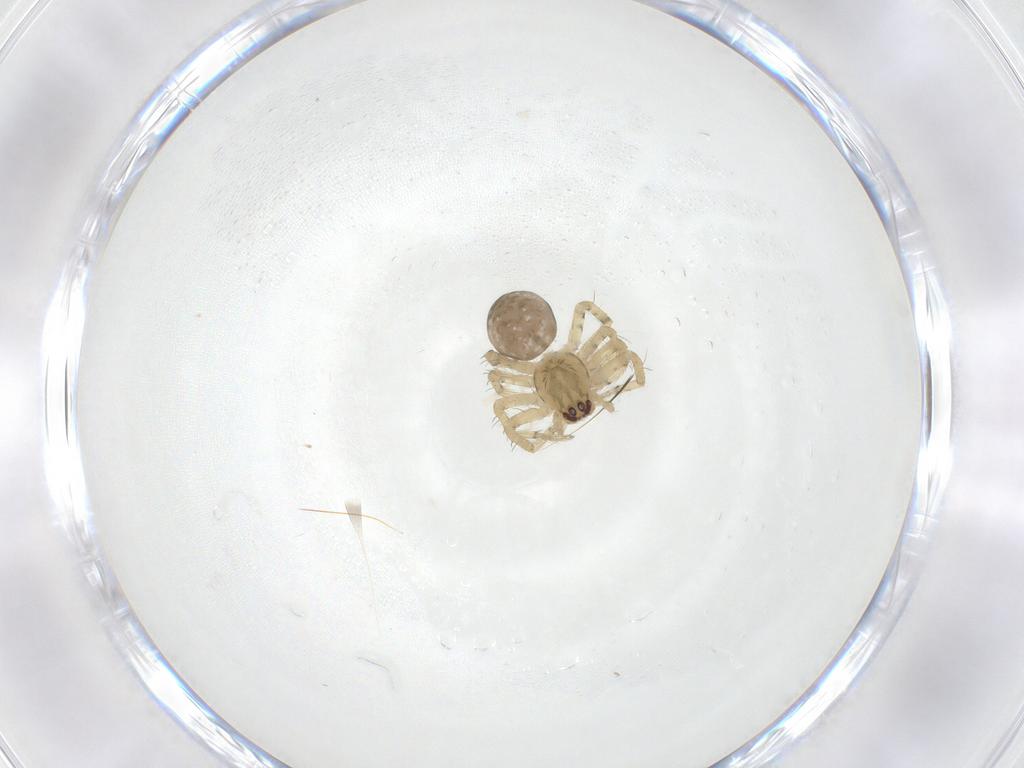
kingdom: Animalia
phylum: Arthropoda
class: Arachnida
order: Araneae
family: Theridiidae
